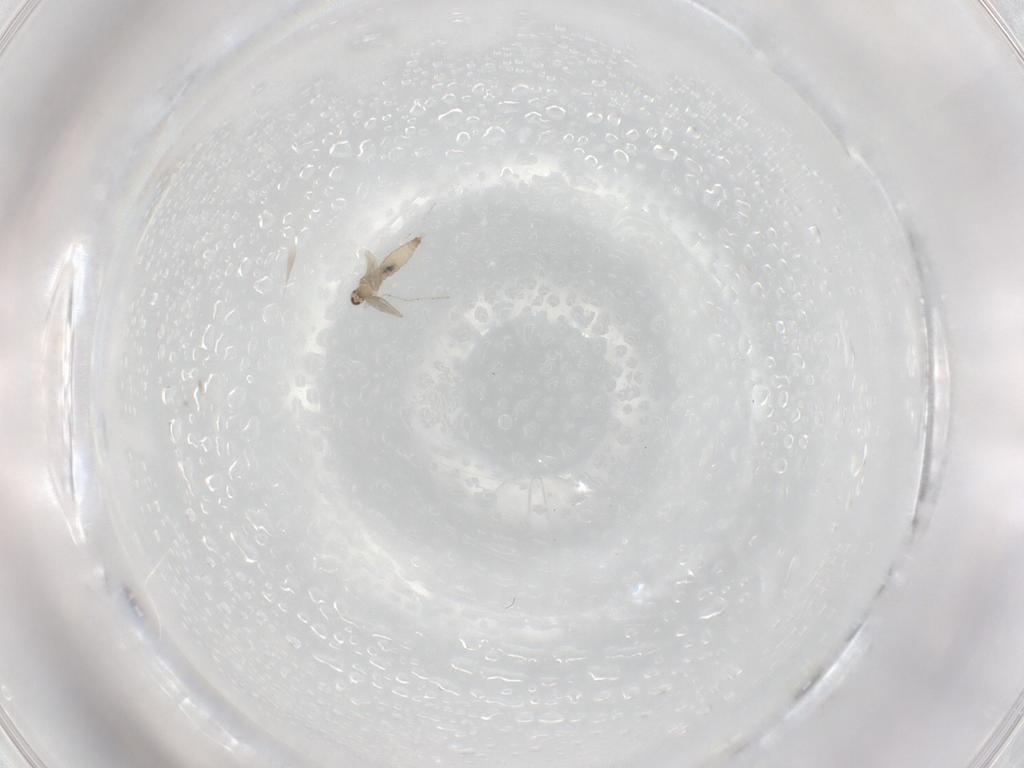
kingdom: Animalia
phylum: Arthropoda
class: Insecta
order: Diptera
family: Chironomidae
